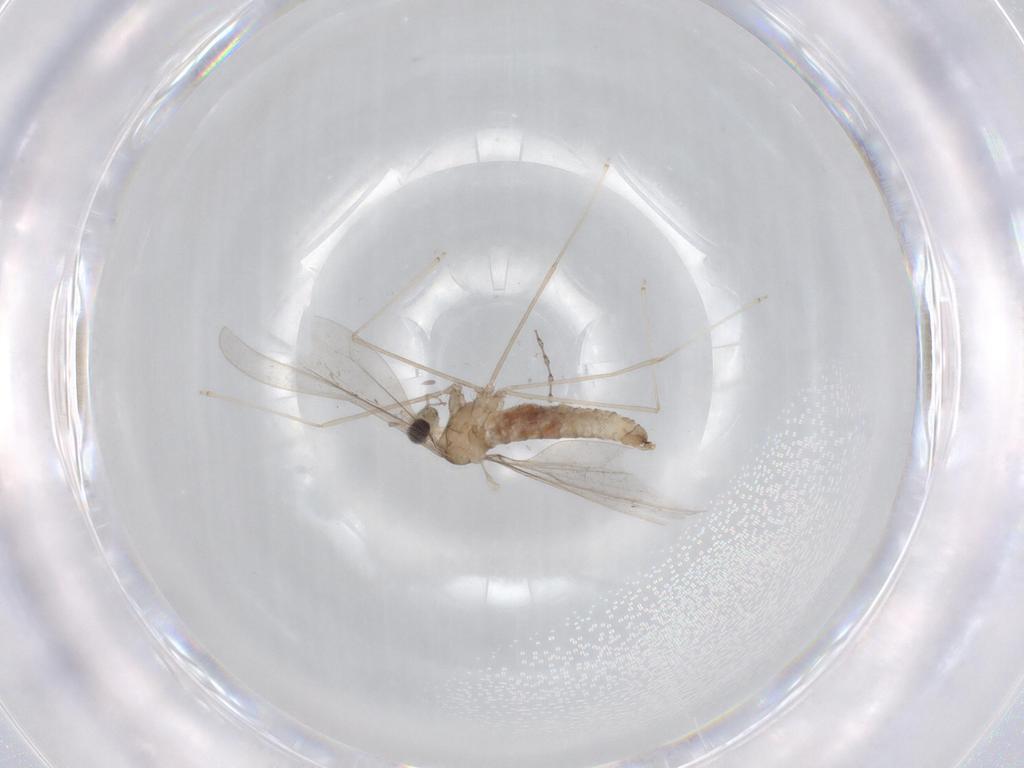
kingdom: Animalia
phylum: Arthropoda
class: Insecta
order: Diptera
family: Cecidomyiidae
